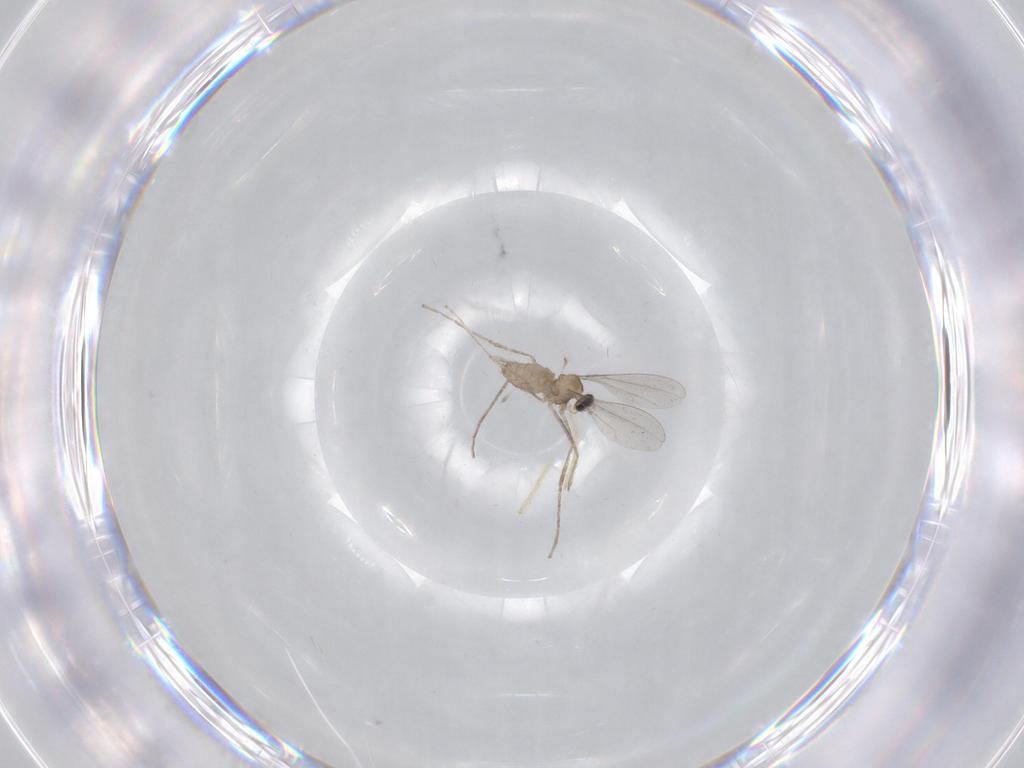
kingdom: Animalia
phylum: Arthropoda
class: Insecta
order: Diptera
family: Cecidomyiidae
